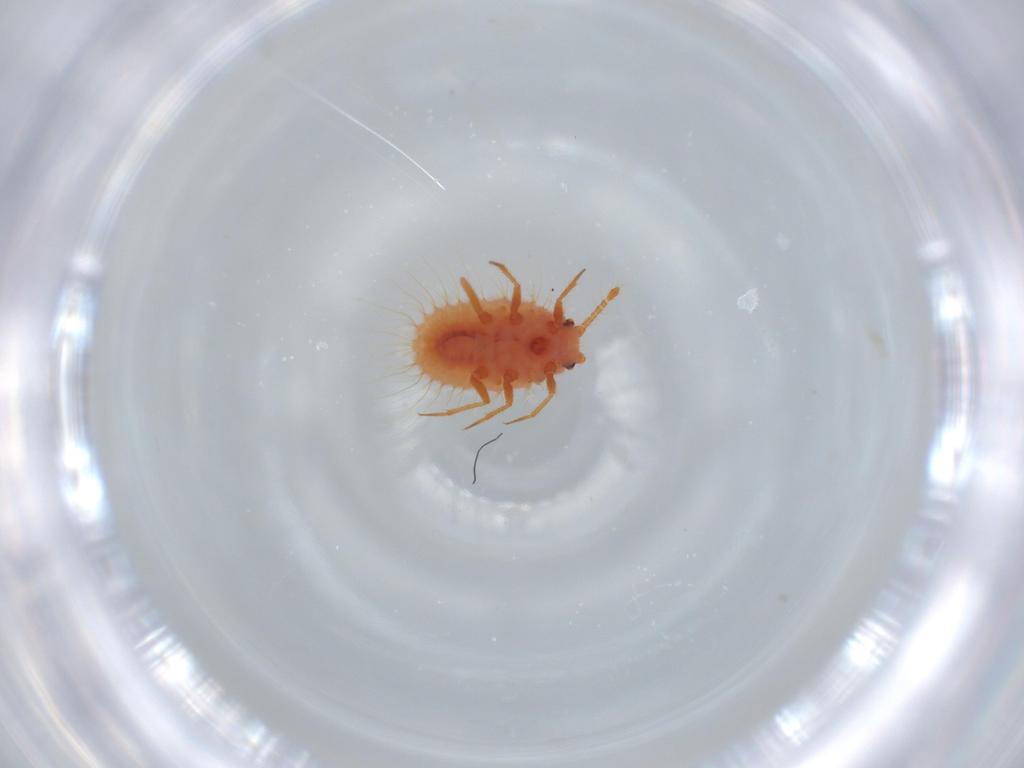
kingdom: Animalia
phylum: Arthropoda
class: Insecta
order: Hemiptera
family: Coccoidea_incertae_sedis
